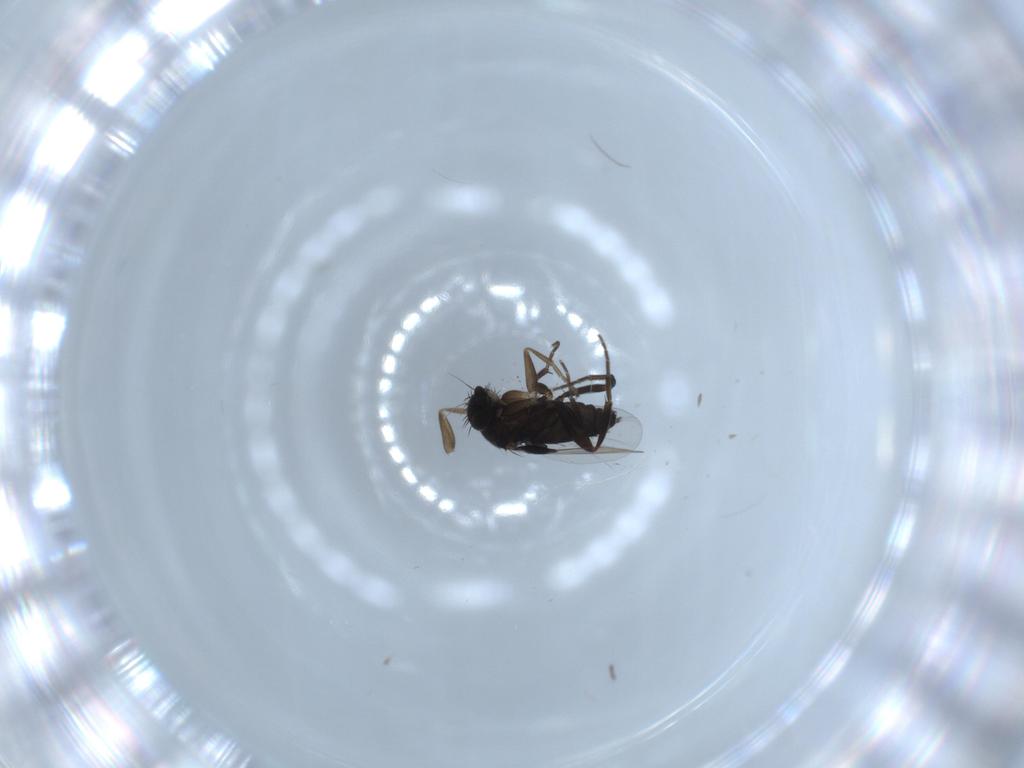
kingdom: Animalia
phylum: Arthropoda
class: Insecta
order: Diptera
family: Phoridae
